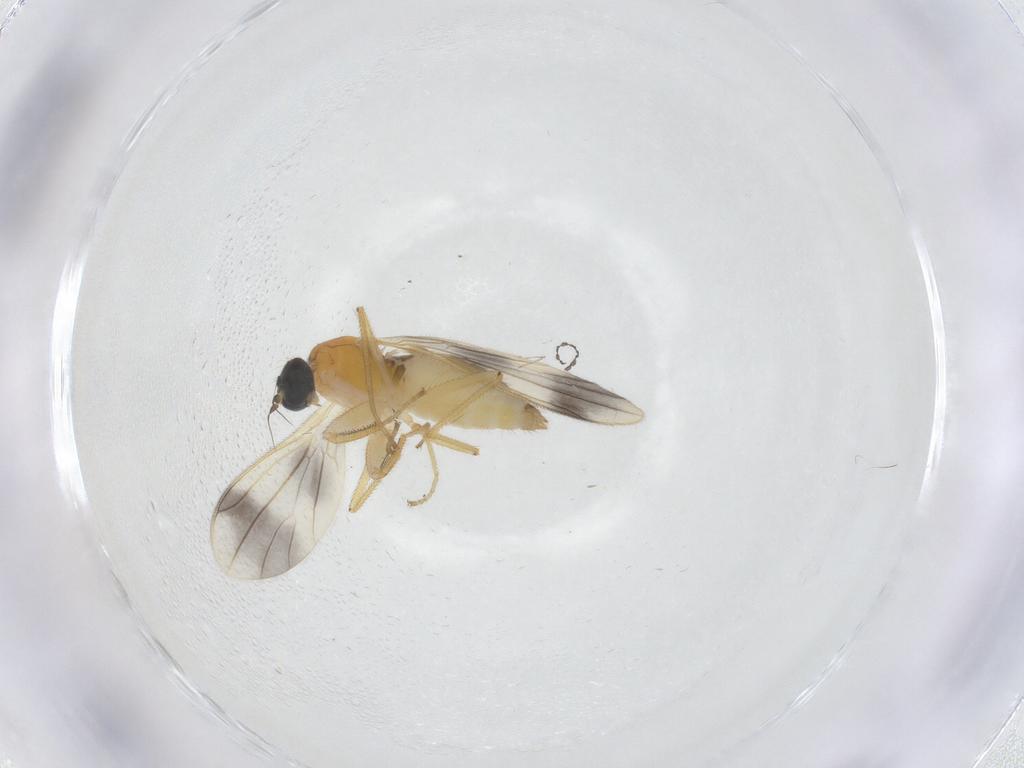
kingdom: Animalia
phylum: Arthropoda
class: Insecta
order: Diptera
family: Empididae
